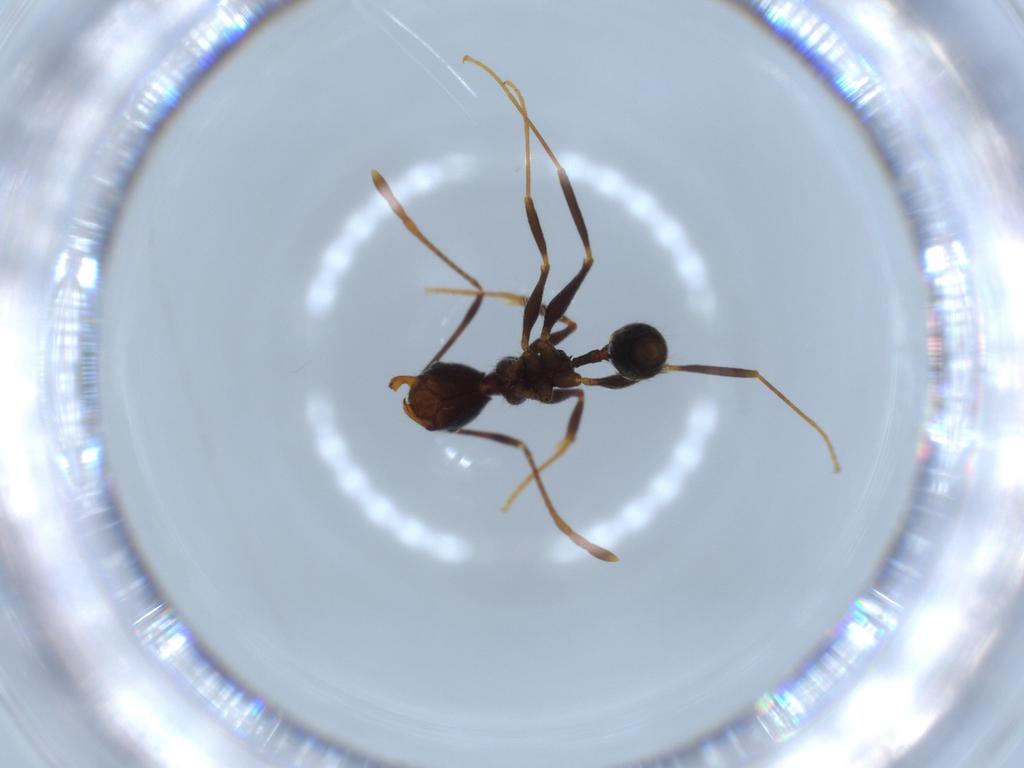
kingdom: Animalia
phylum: Arthropoda
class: Insecta
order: Hymenoptera
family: Formicidae
